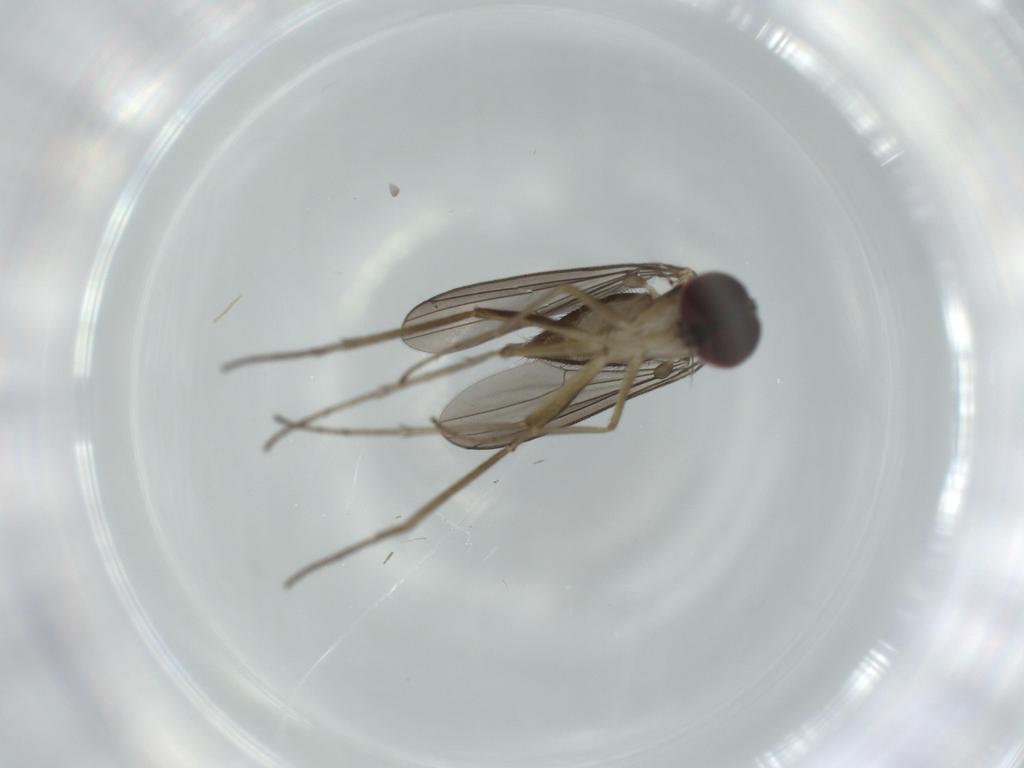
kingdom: Animalia
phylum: Arthropoda
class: Insecta
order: Diptera
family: Dolichopodidae
